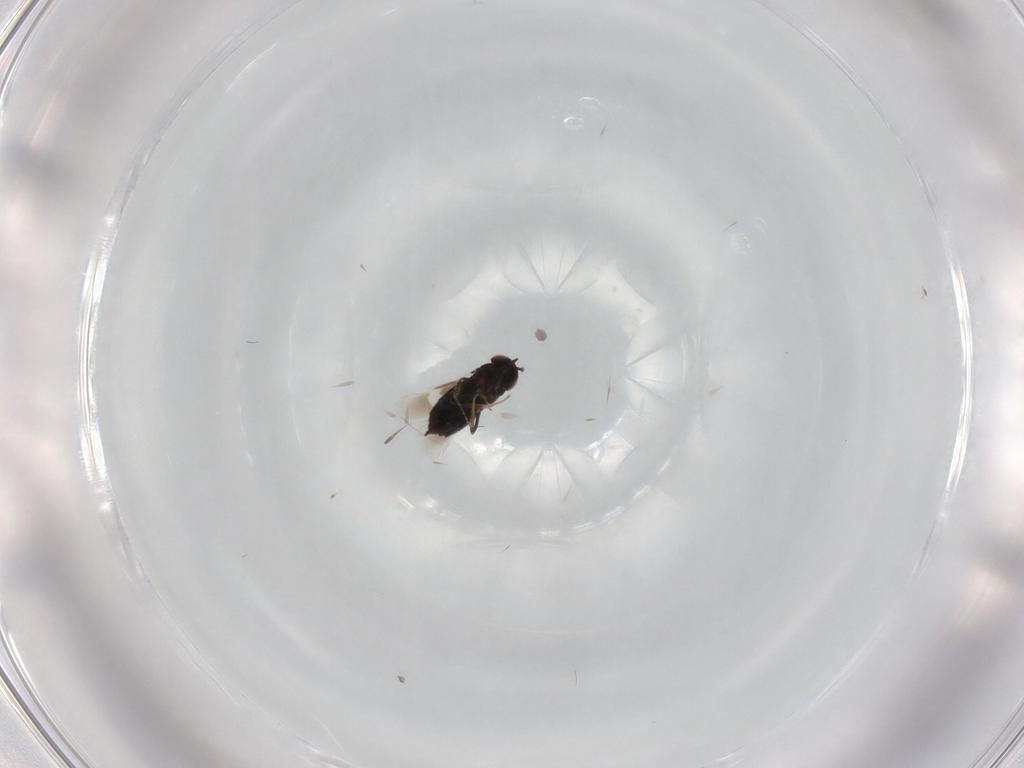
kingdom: Animalia
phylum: Arthropoda
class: Insecta
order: Hymenoptera
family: Signiphoridae
